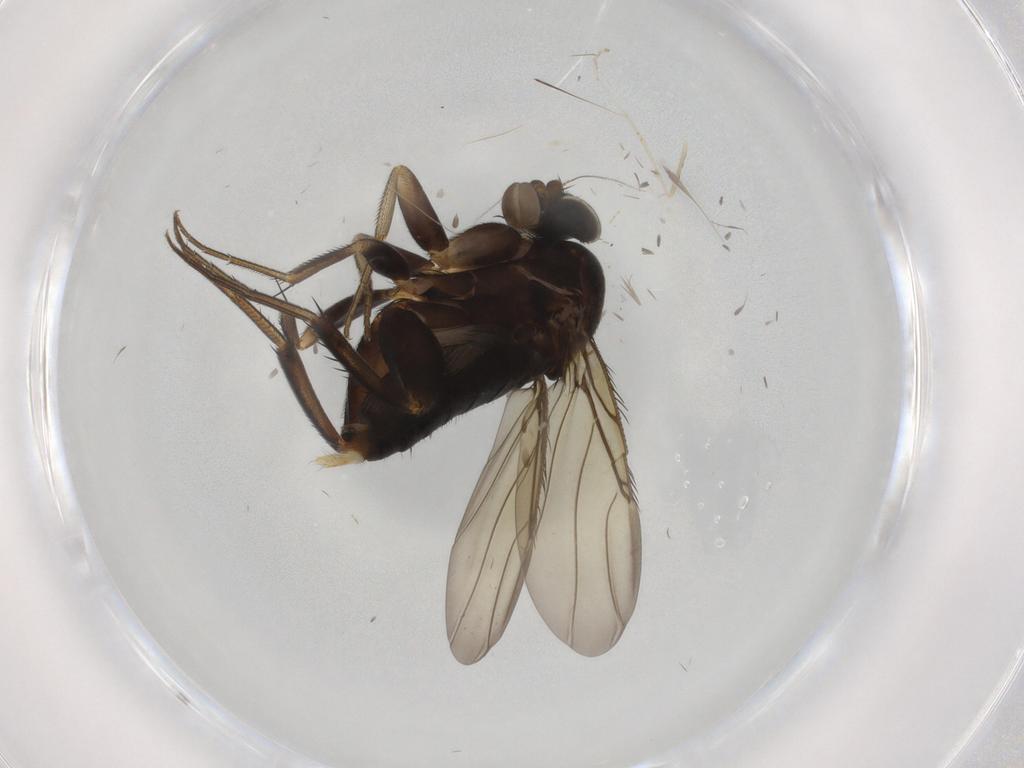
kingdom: Animalia
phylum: Arthropoda
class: Insecta
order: Diptera
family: Phoridae
